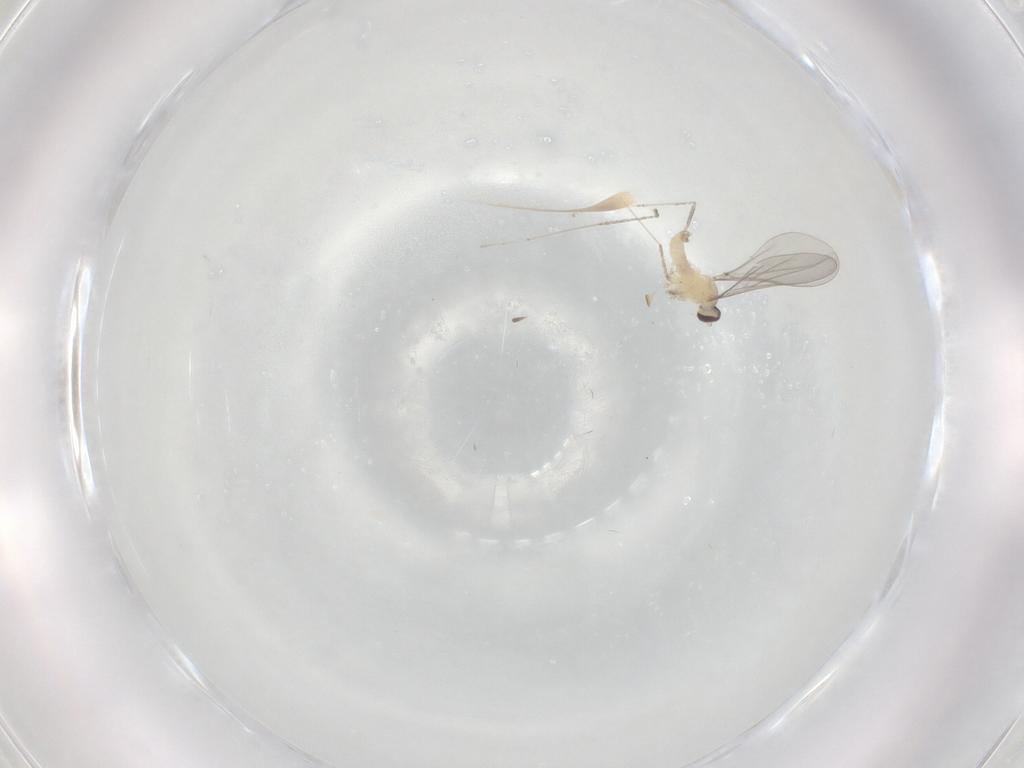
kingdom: Animalia
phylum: Arthropoda
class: Insecta
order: Diptera
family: Cecidomyiidae
